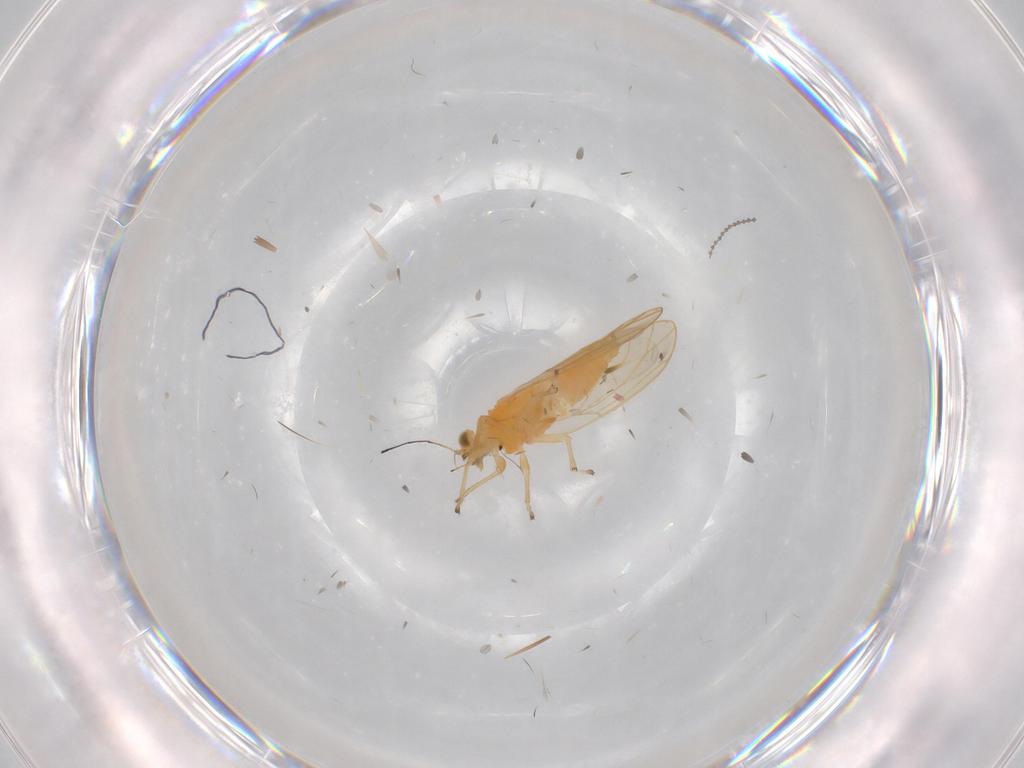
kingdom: Animalia
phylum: Arthropoda
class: Insecta
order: Hemiptera
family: Triozidae
